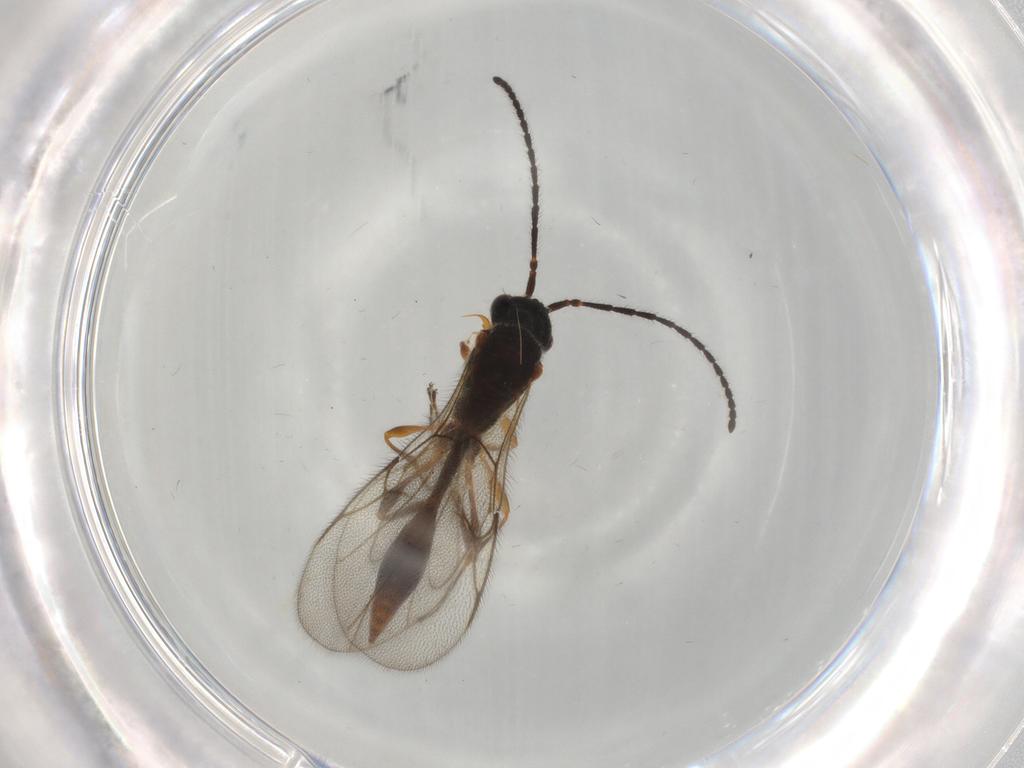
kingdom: Animalia
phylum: Arthropoda
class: Insecta
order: Hymenoptera
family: Diapriidae
